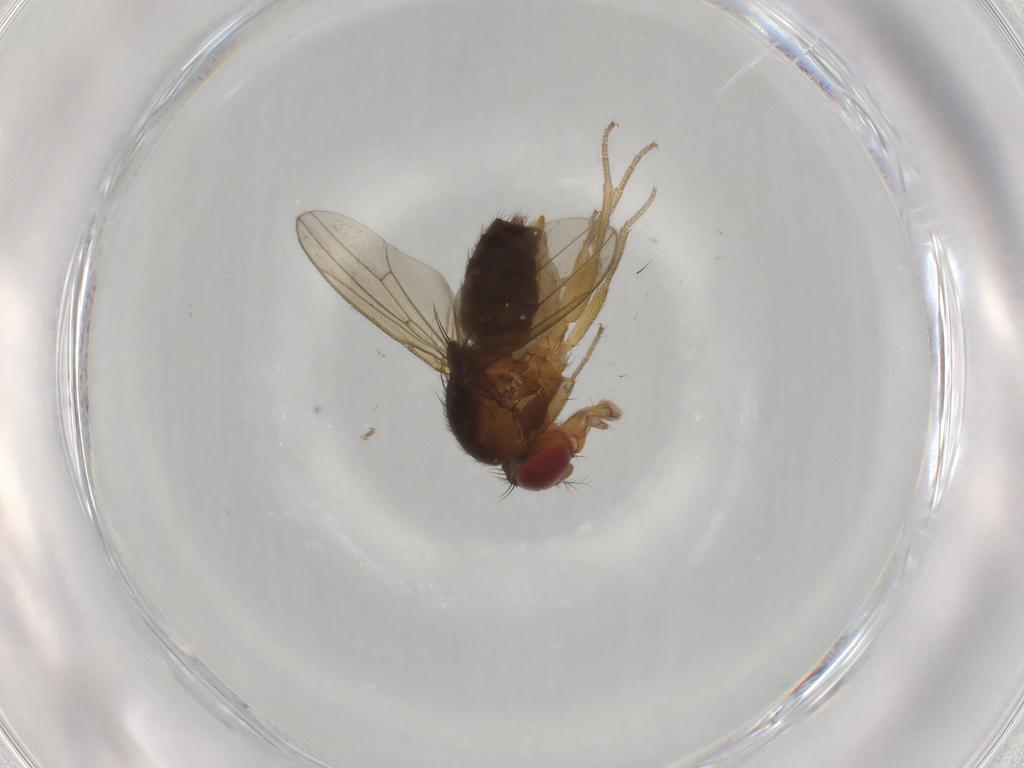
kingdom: Animalia
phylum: Arthropoda
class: Insecta
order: Diptera
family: Drosophilidae
